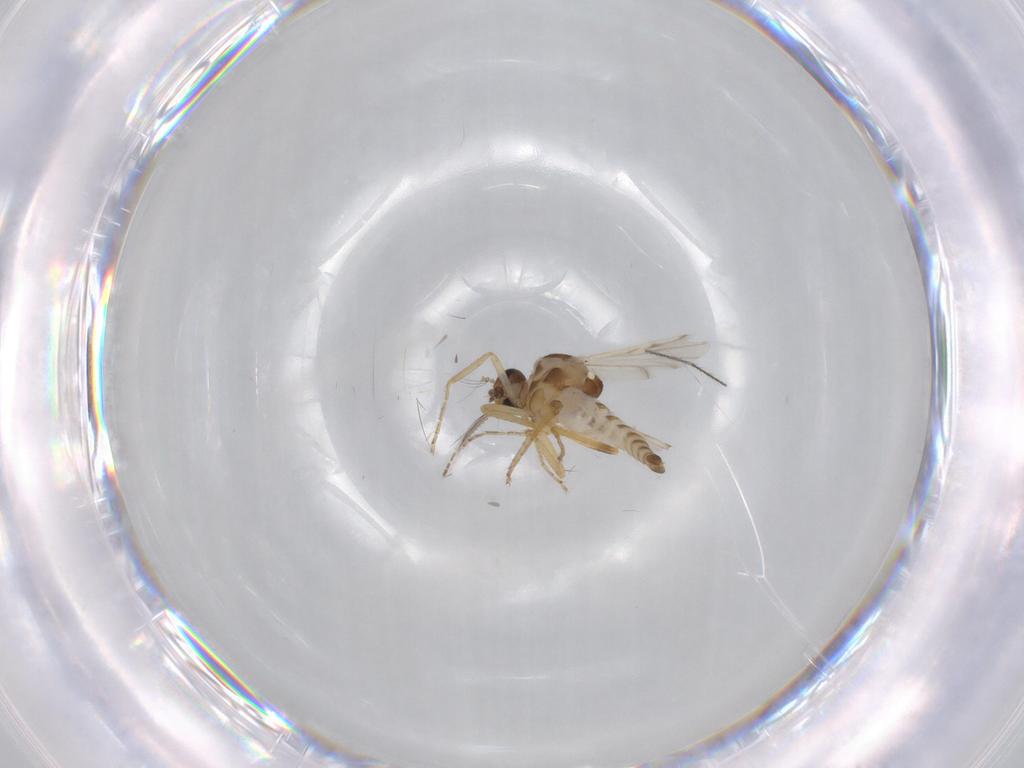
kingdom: Animalia
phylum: Arthropoda
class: Insecta
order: Diptera
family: Ceratopogonidae
